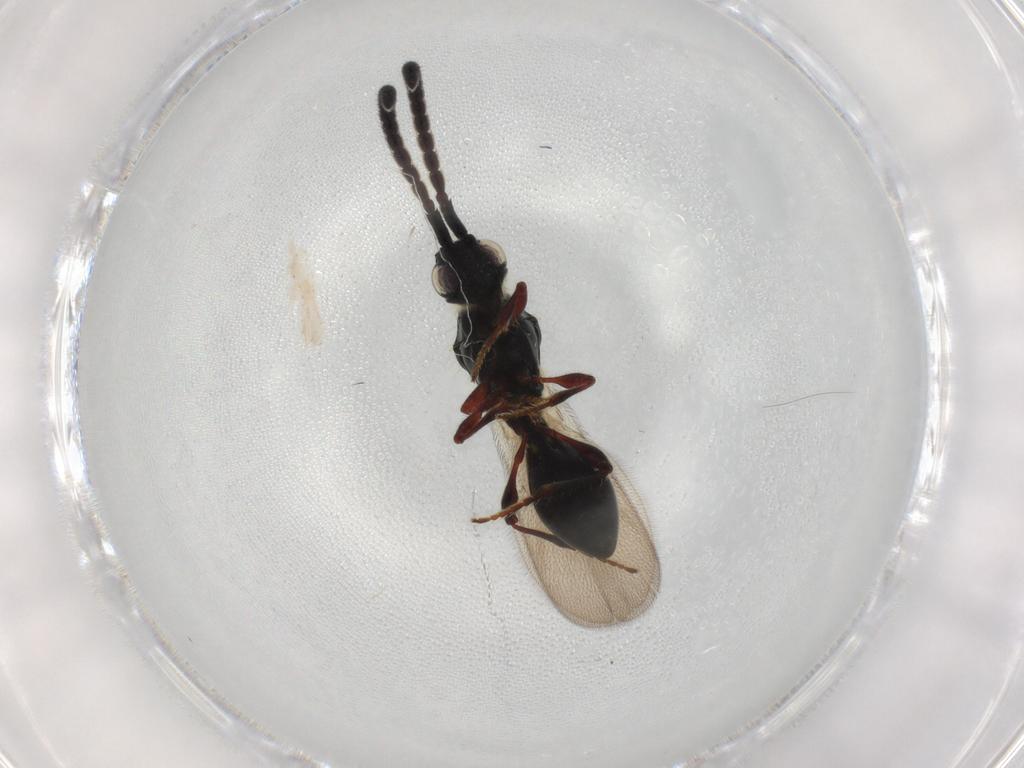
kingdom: Animalia
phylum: Arthropoda
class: Insecta
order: Hymenoptera
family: Diapriidae
